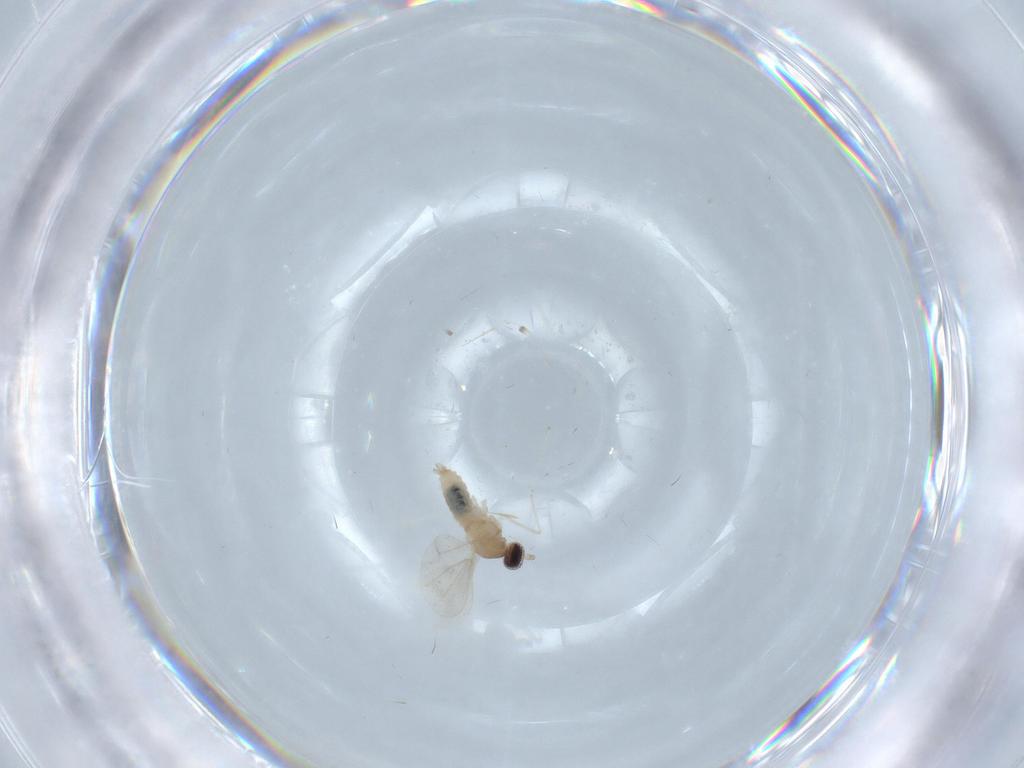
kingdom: Animalia
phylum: Arthropoda
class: Insecta
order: Diptera
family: Cecidomyiidae
